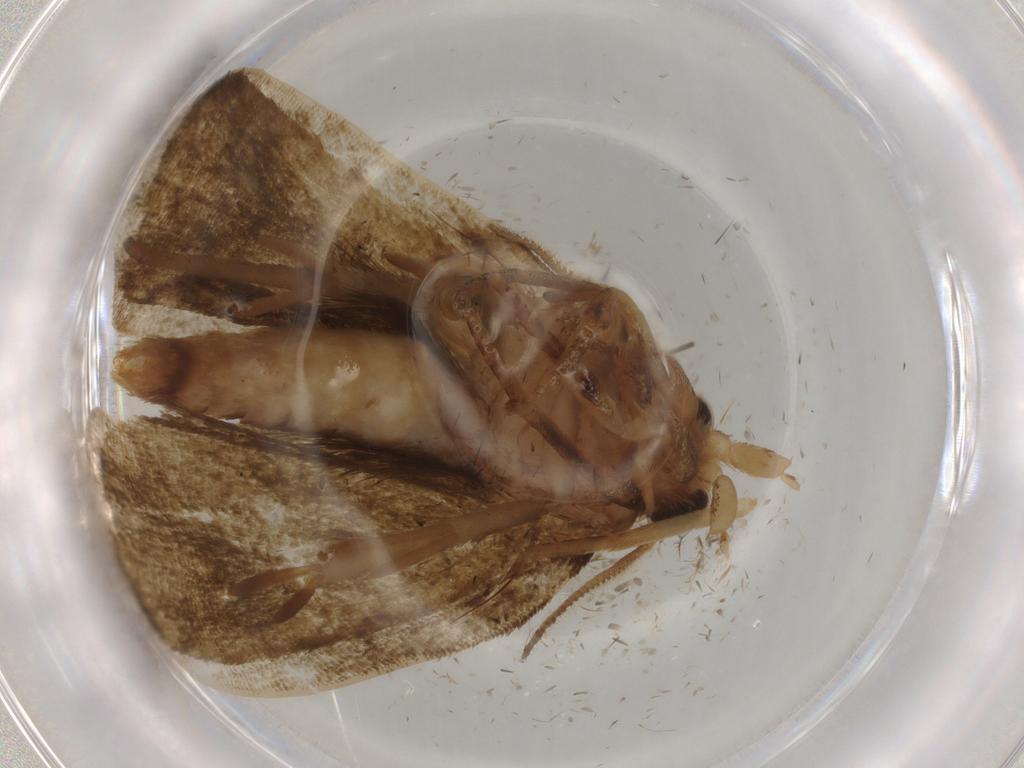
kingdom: Animalia
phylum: Arthropoda
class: Insecta
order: Lepidoptera
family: Geometridae
